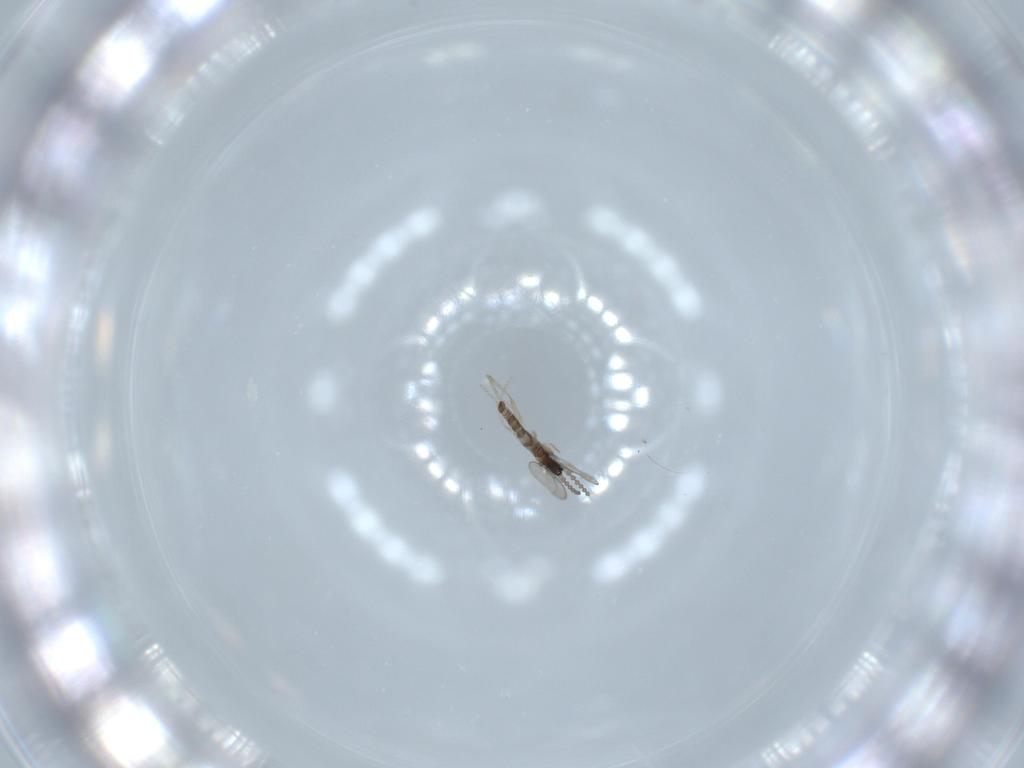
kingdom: Animalia
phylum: Arthropoda
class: Insecta
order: Diptera
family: Cecidomyiidae
